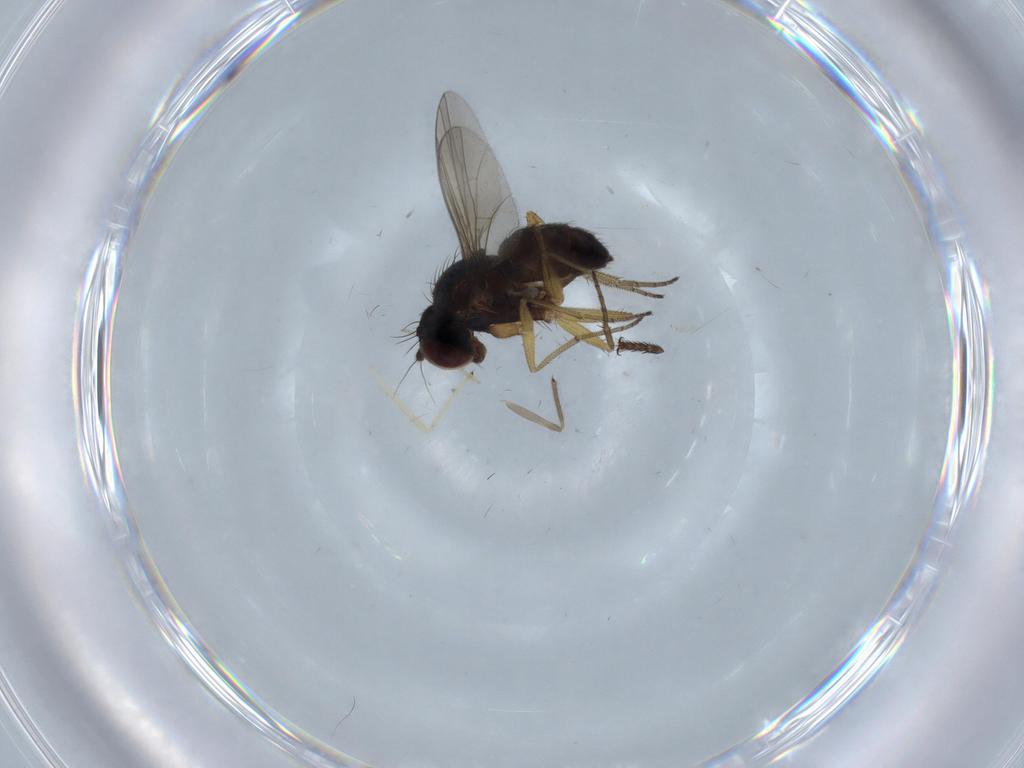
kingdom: Animalia
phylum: Arthropoda
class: Insecta
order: Diptera
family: Dolichopodidae
